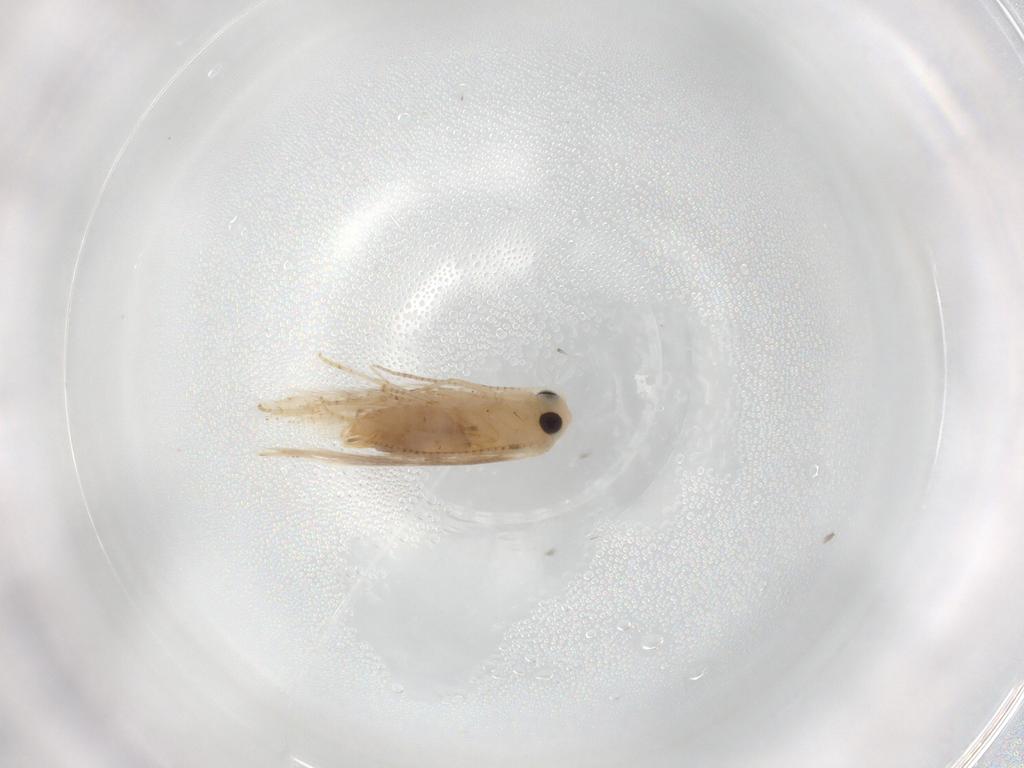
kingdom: Animalia
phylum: Arthropoda
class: Insecta
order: Lepidoptera
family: Bucculatricidae
